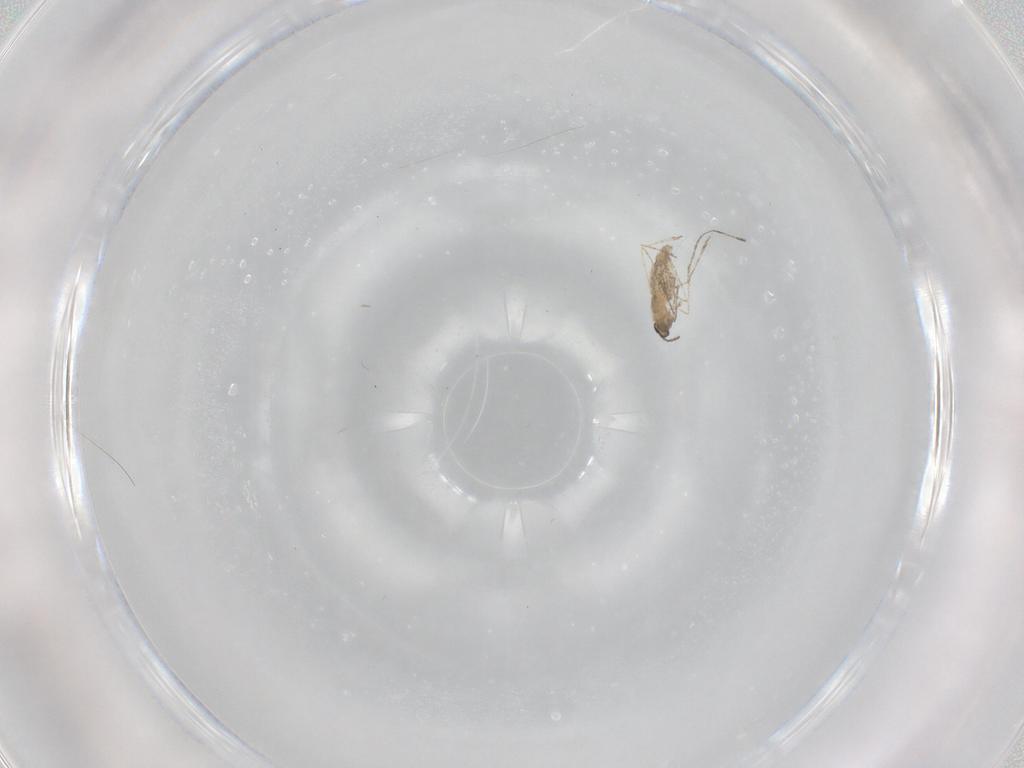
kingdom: Animalia
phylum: Arthropoda
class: Insecta
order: Diptera
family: Cecidomyiidae
